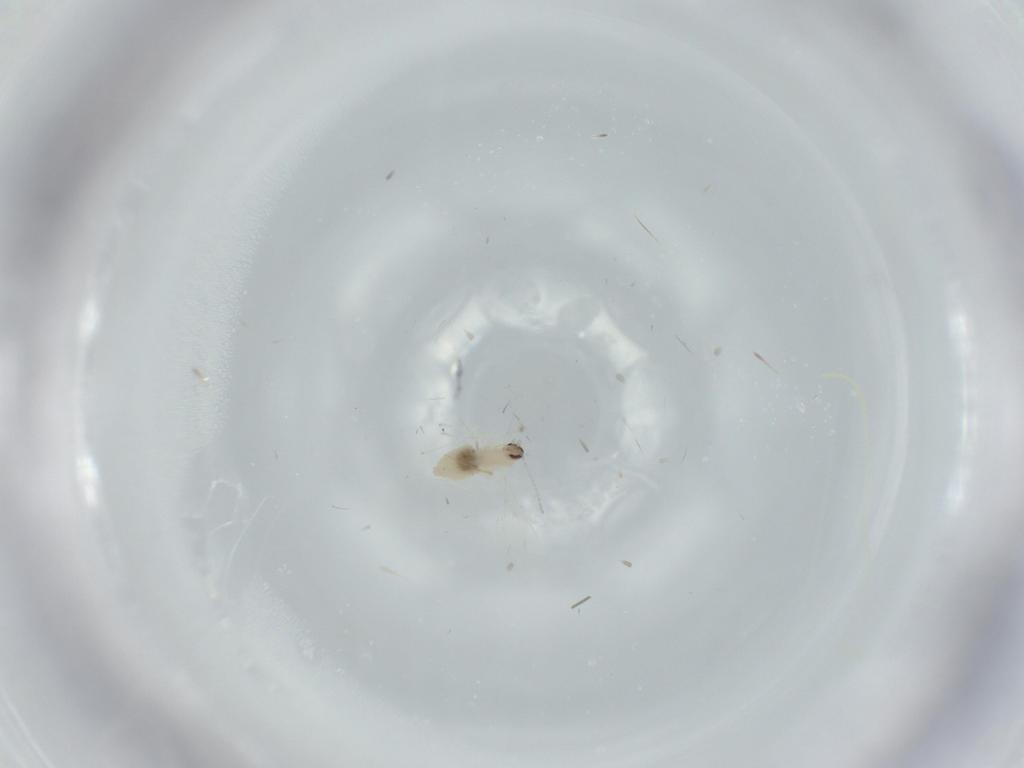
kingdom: Animalia
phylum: Arthropoda
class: Insecta
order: Diptera
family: Cecidomyiidae
